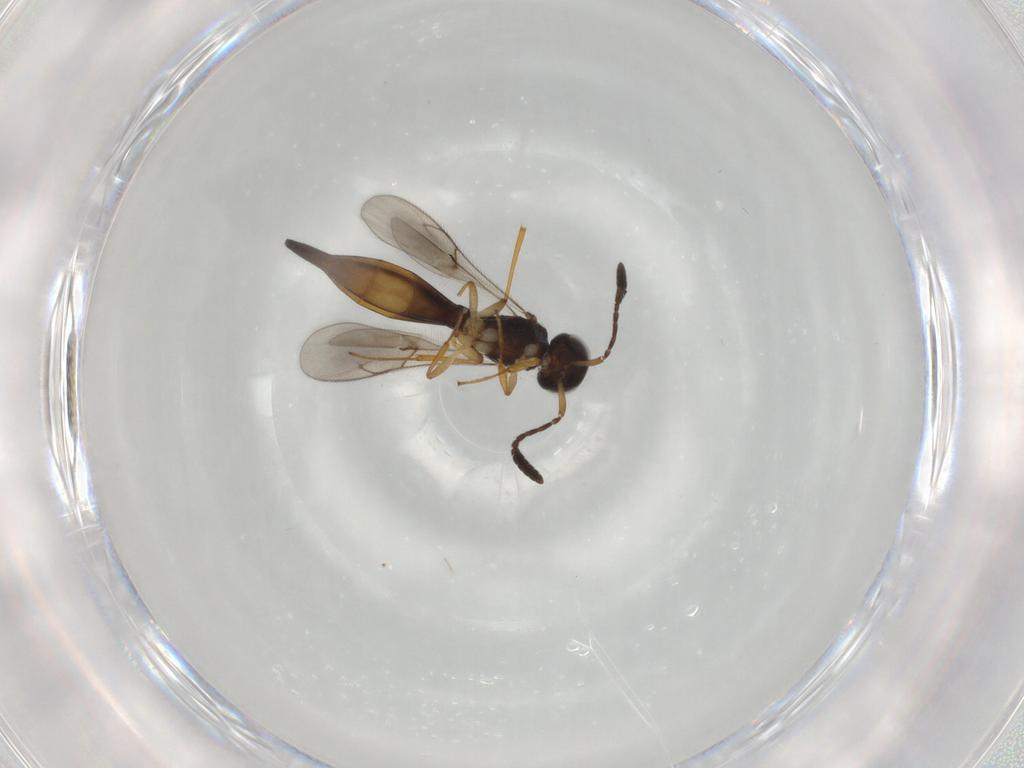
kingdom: Animalia
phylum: Arthropoda
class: Insecta
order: Hymenoptera
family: Scelionidae
